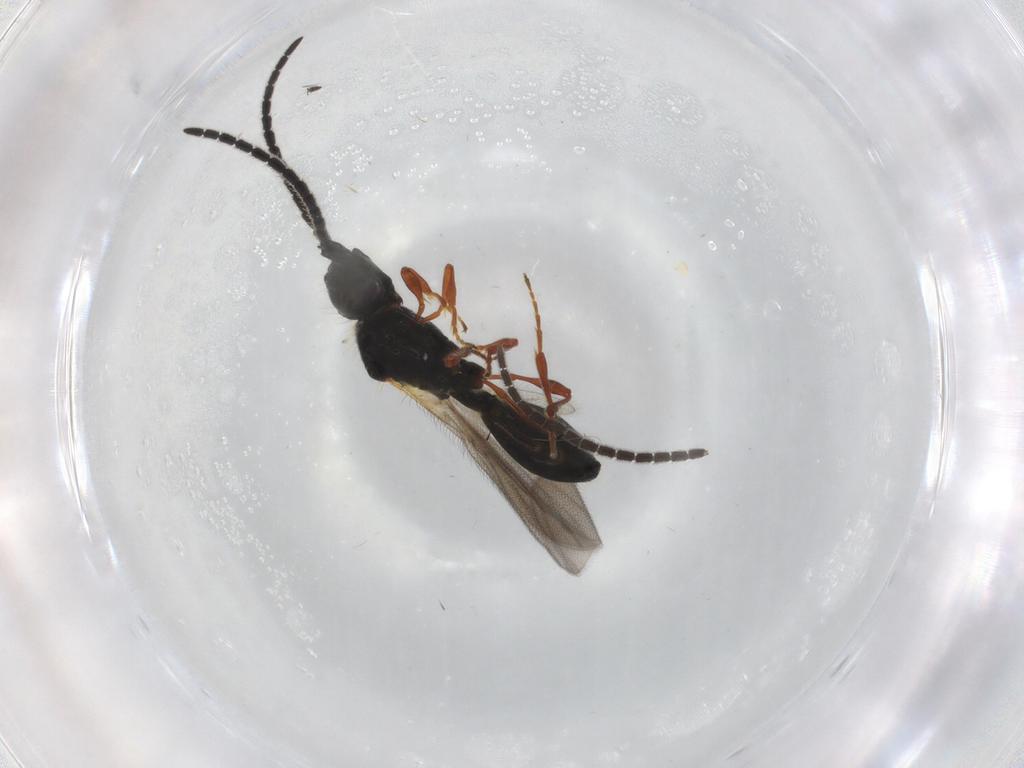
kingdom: Animalia
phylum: Arthropoda
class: Insecta
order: Hymenoptera
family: Diapriidae
